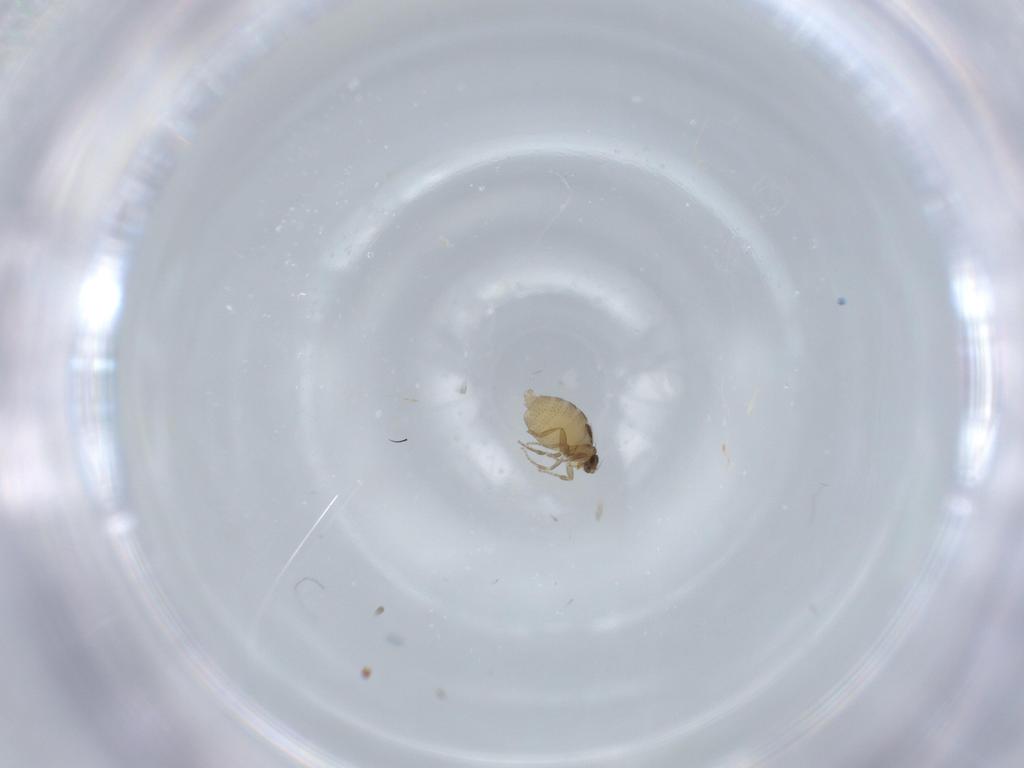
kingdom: Animalia
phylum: Arthropoda
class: Insecta
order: Diptera
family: Phoridae
